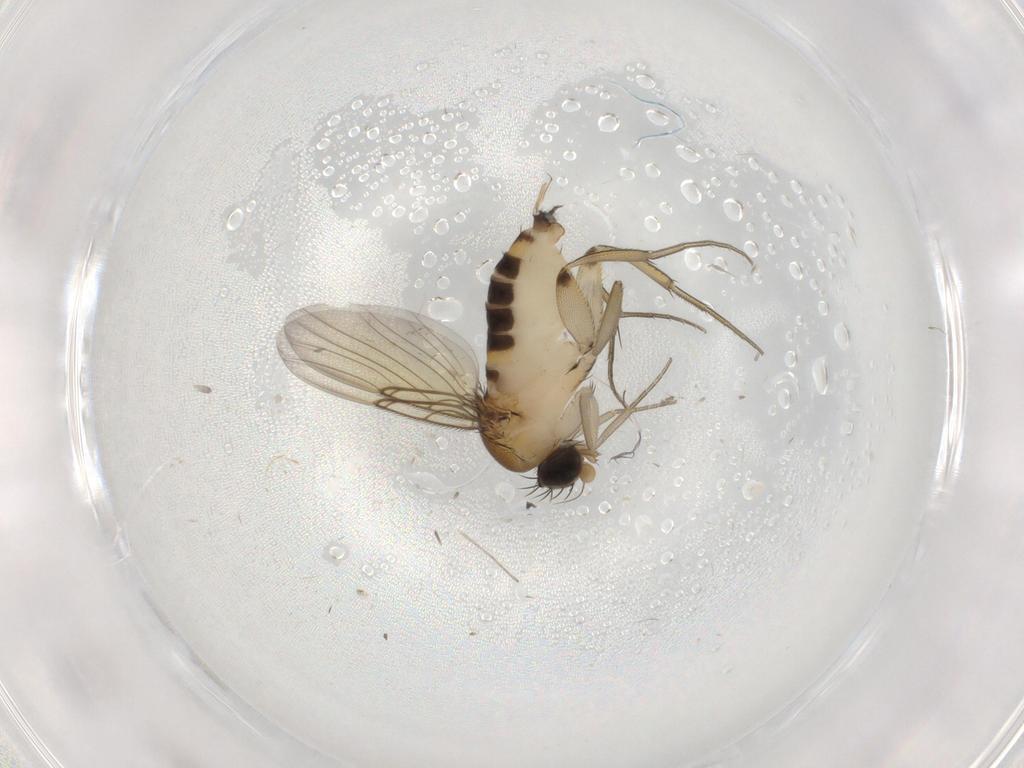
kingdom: Animalia
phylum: Arthropoda
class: Insecta
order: Diptera
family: Phoridae
